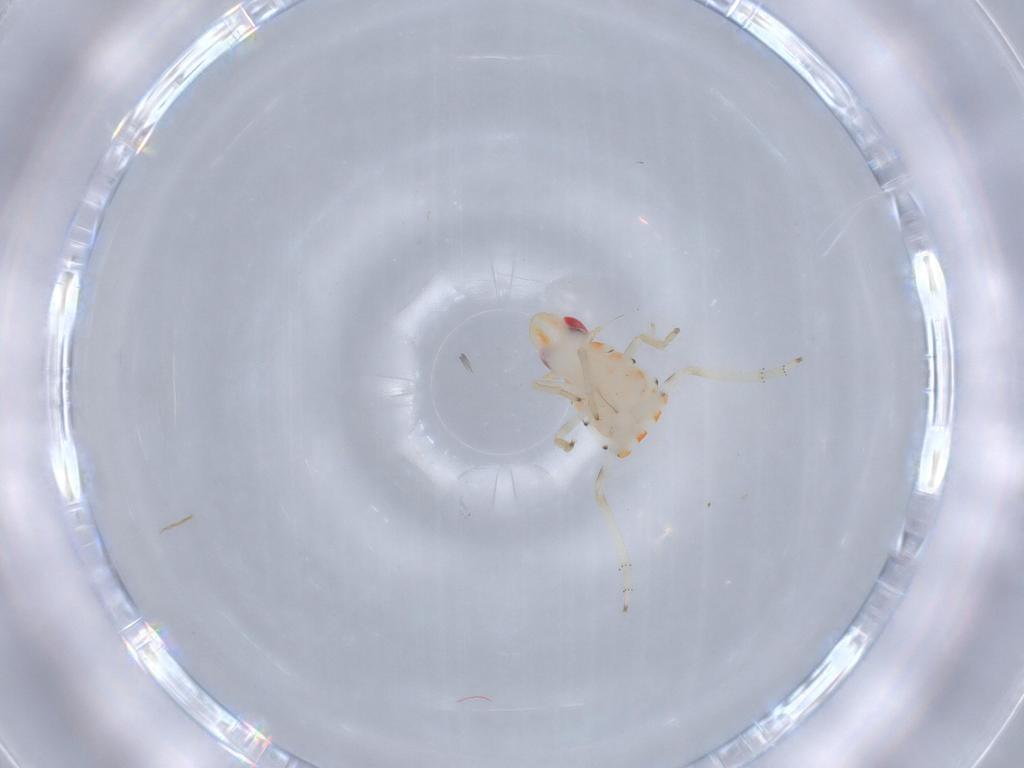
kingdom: Animalia
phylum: Arthropoda
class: Insecta
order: Hemiptera
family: Tropiduchidae
